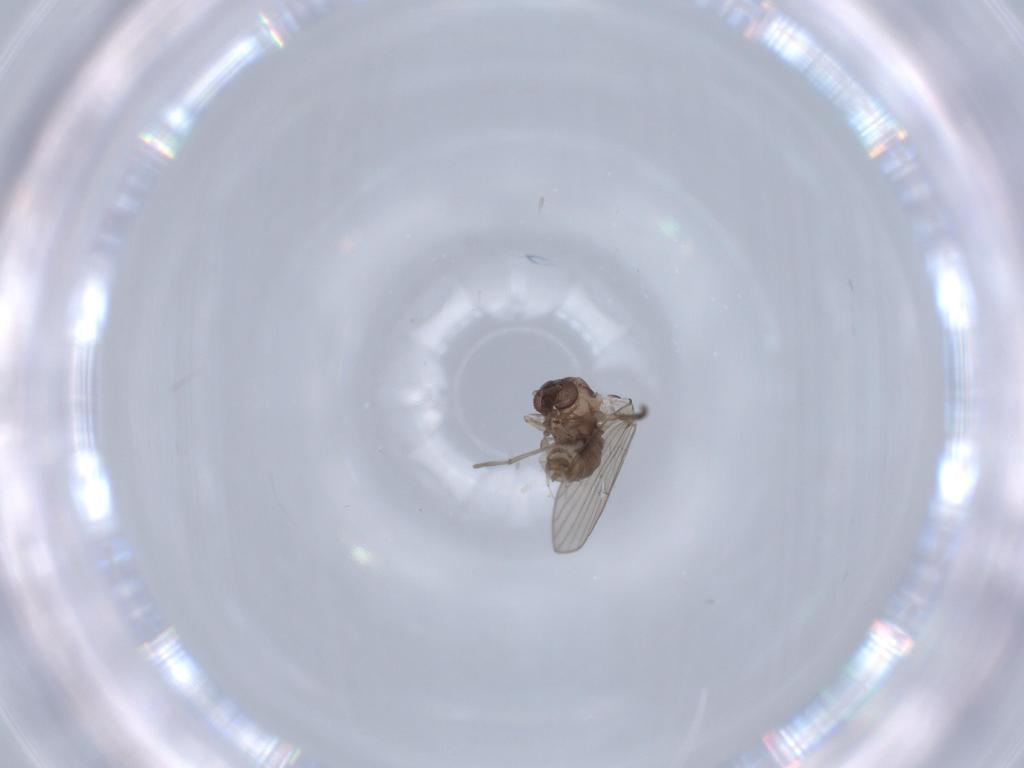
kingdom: Animalia
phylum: Arthropoda
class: Insecta
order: Diptera
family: Psychodidae
